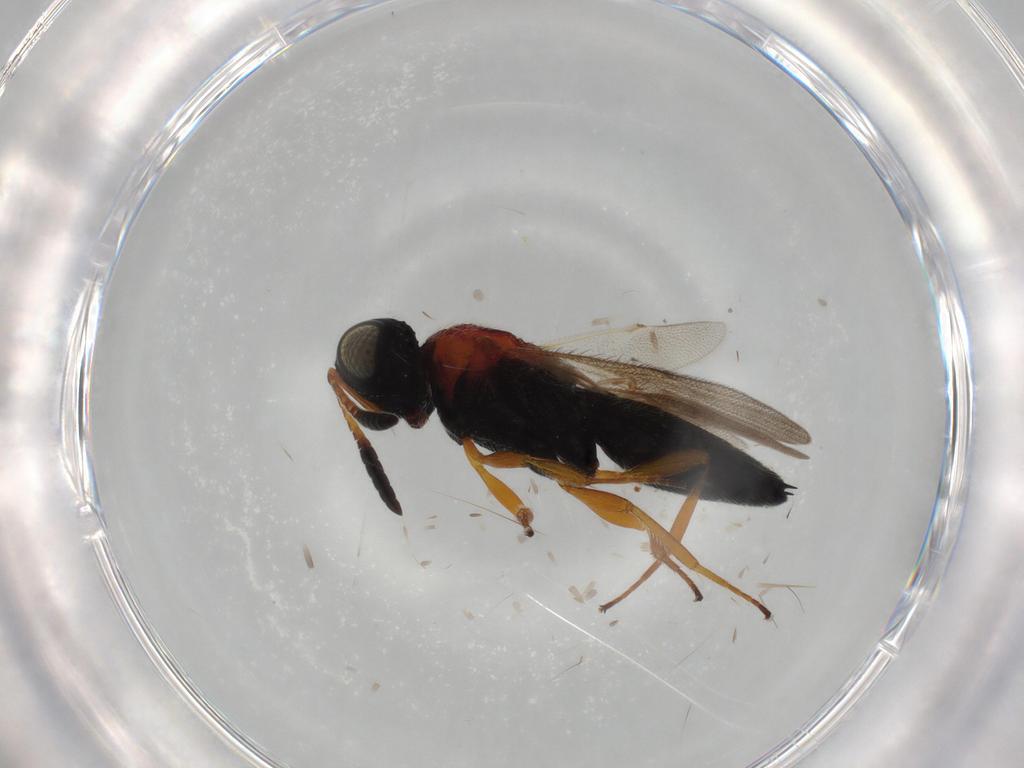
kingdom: Animalia
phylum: Arthropoda
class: Insecta
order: Hymenoptera
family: Scelionidae
